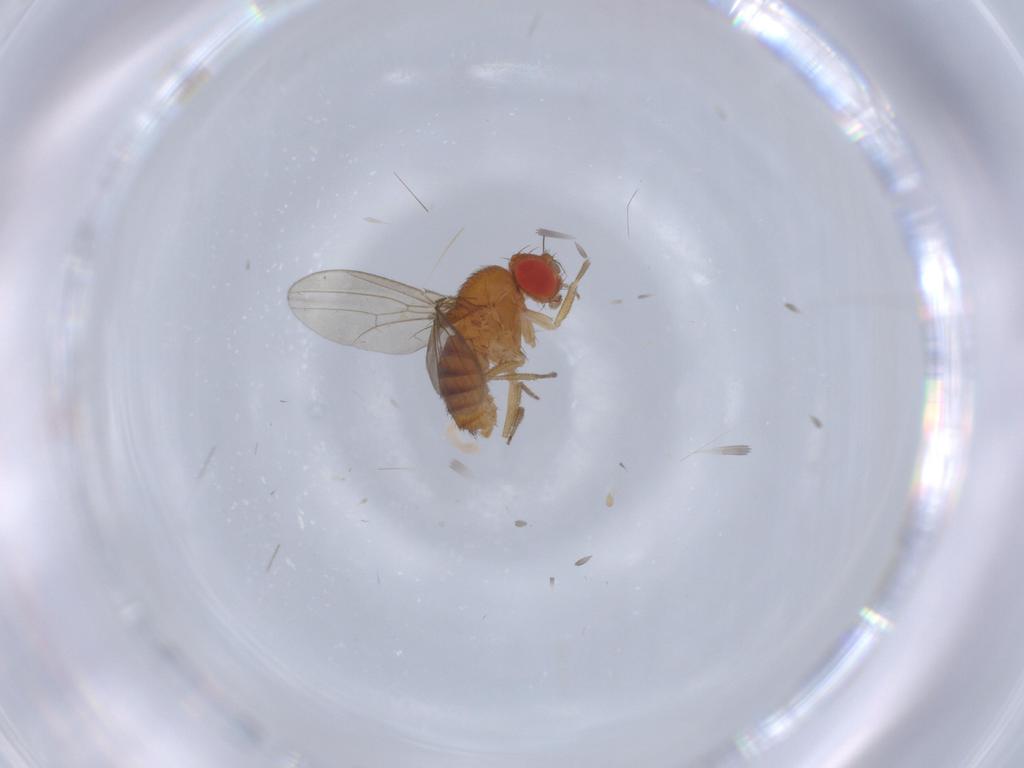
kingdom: Animalia
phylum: Arthropoda
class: Insecta
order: Diptera
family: Drosophilidae
